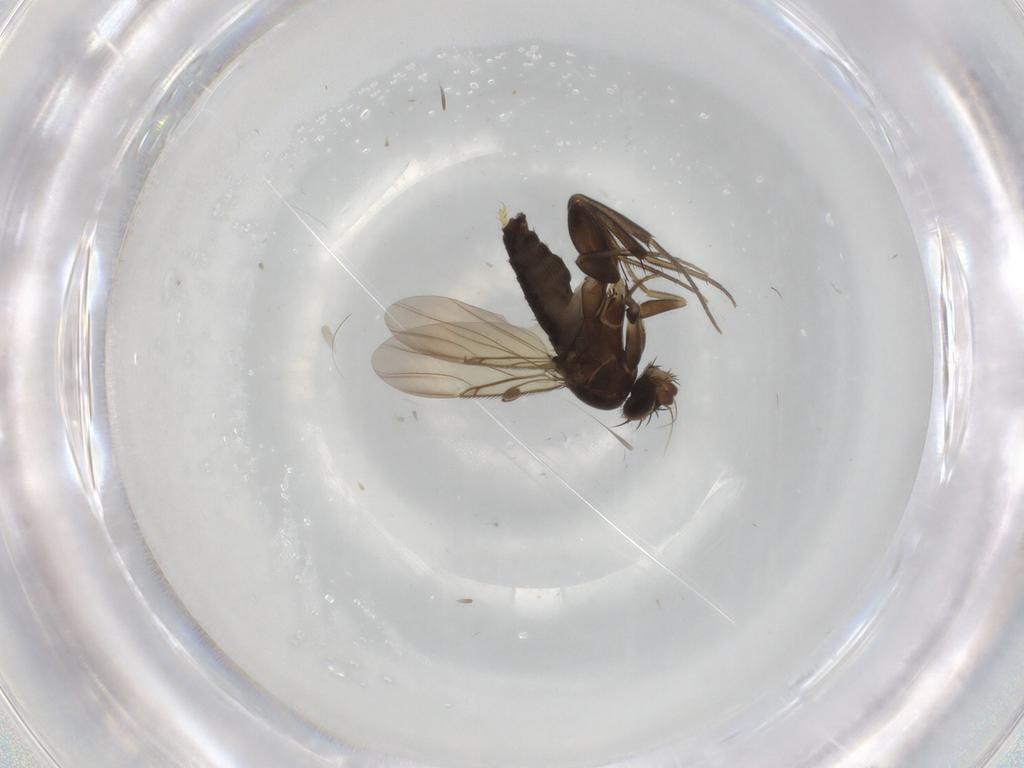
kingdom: Animalia
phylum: Arthropoda
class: Insecta
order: Diptera
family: Phoridae
